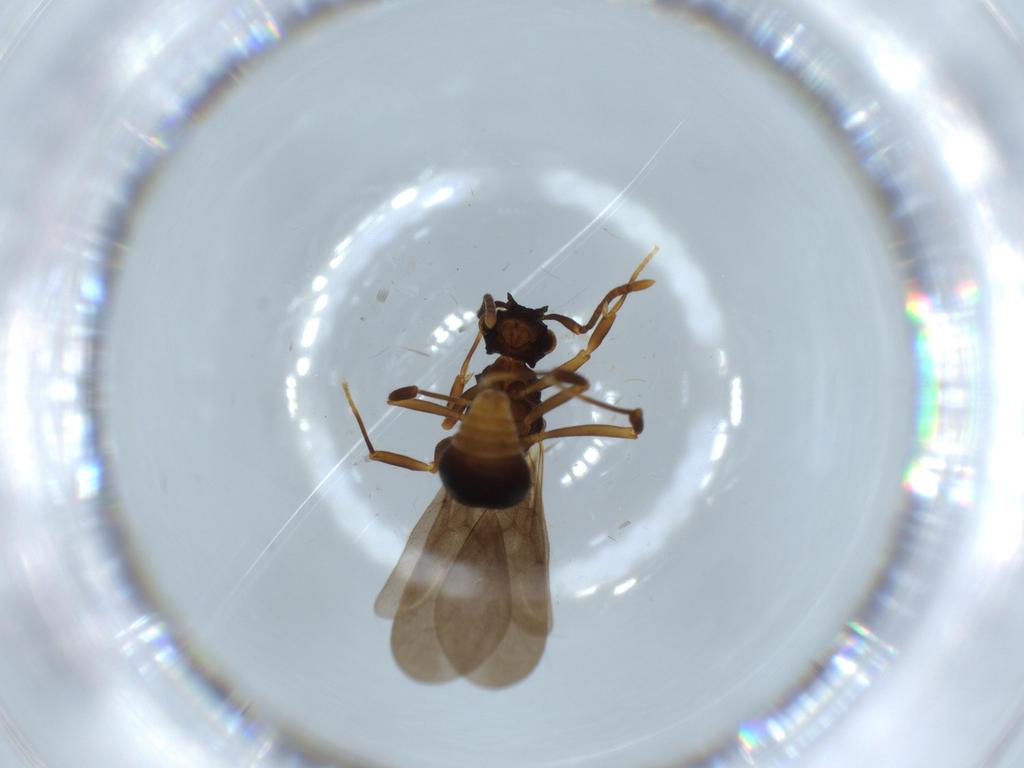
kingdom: Animalia
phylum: Arthropoda
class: Insecta
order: Hymenoptera
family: Formicidae
